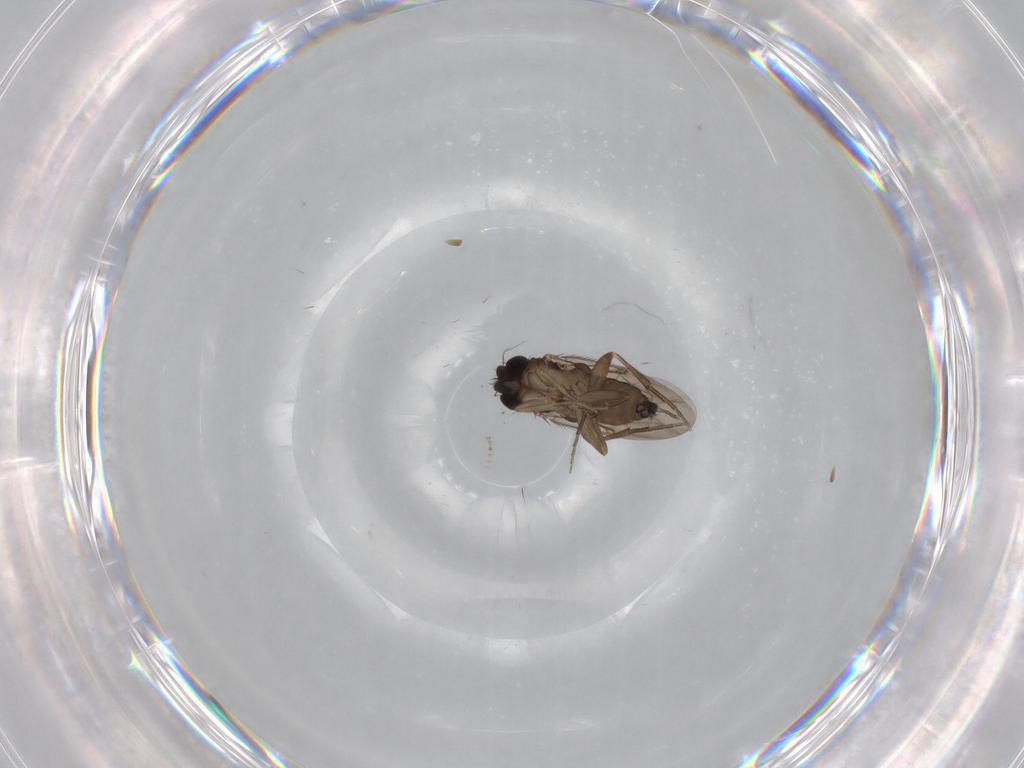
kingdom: Animalia
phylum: Arthropoda
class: Insecta
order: Diptera
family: Phoridae
